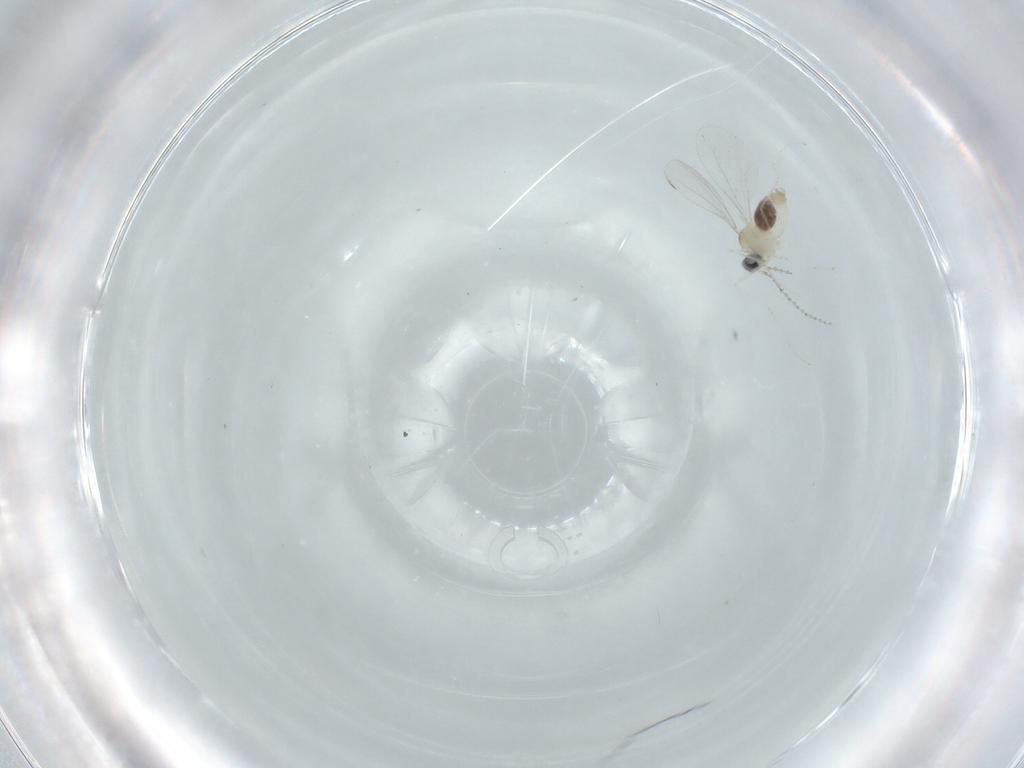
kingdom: Animalia
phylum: Arthropoda
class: Insecta
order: Diptera
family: Cecidomyiidae
